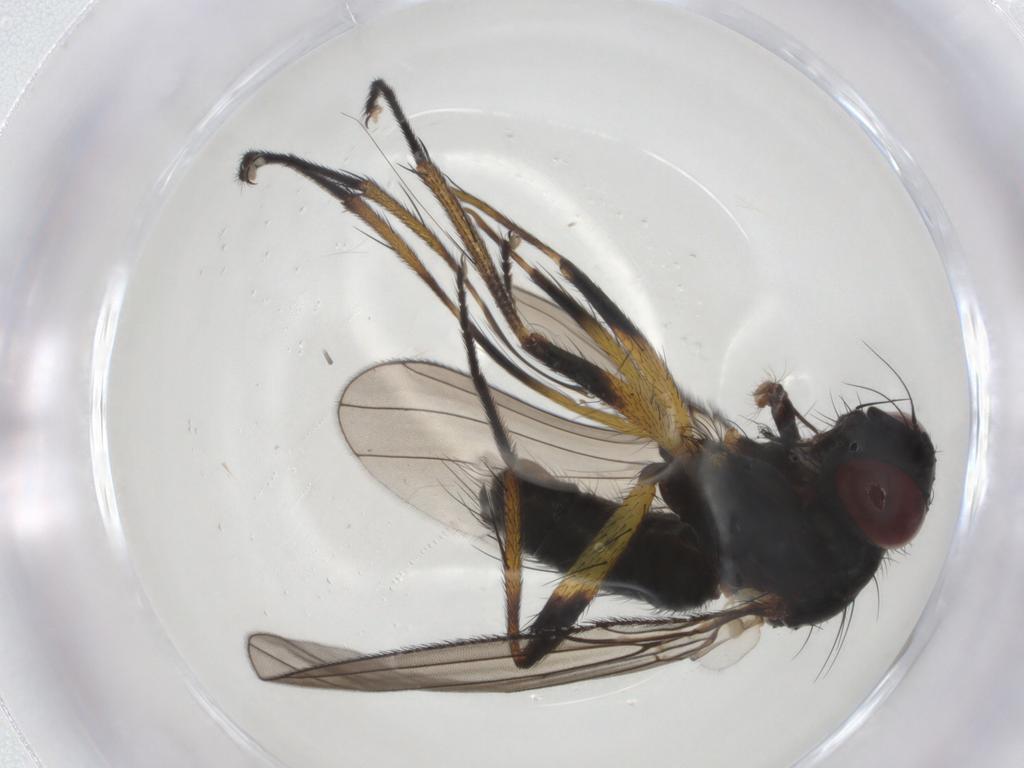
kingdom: Animalia
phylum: Arthropoda
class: Insecta
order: Diptera
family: Muscidae
